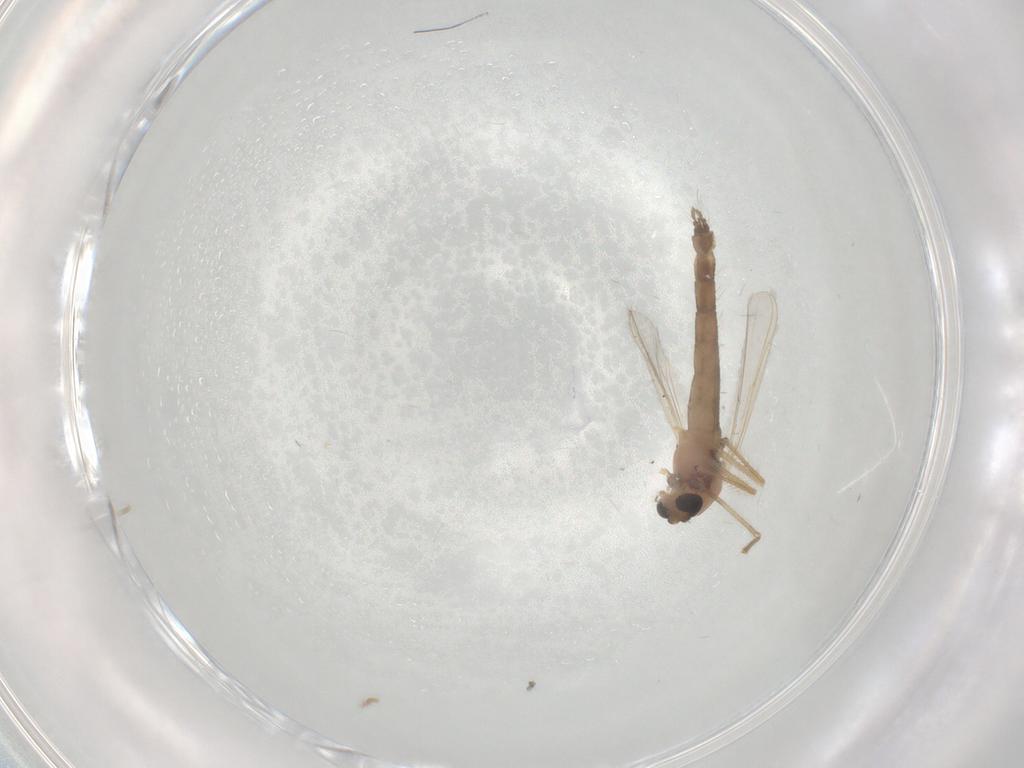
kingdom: Animalia
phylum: Arthropoda
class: Insecta
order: Diptera
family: Chironomidae
